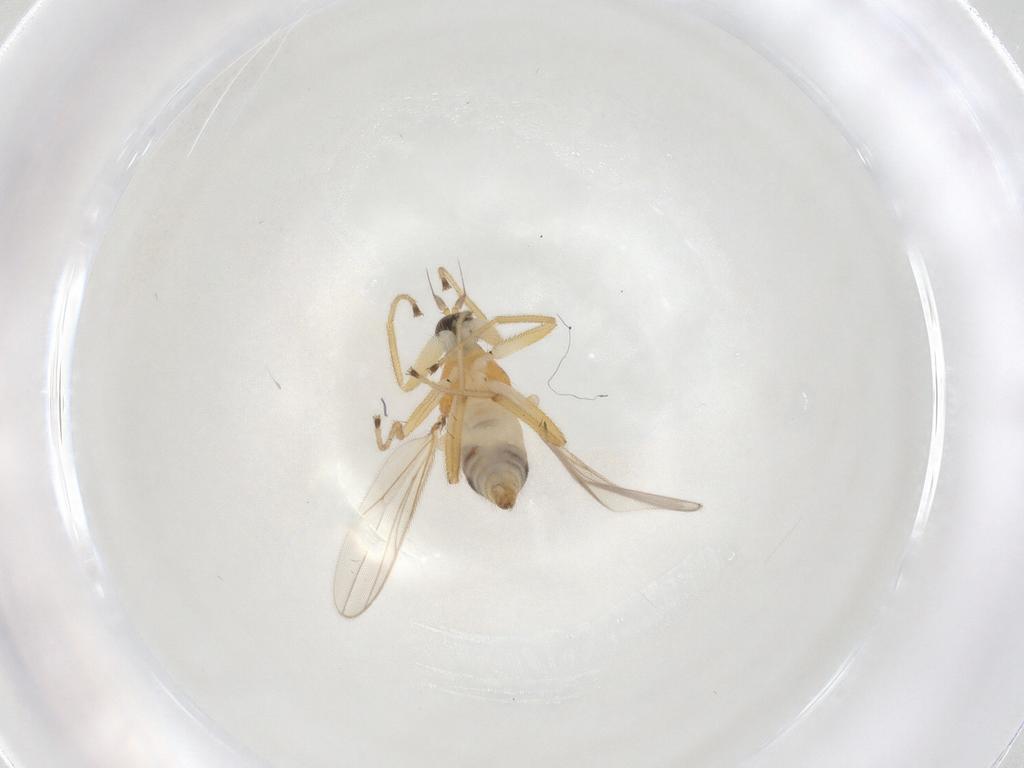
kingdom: Animalia
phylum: Arthropoda
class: Insecta
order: Diptera
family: Hybotidae
